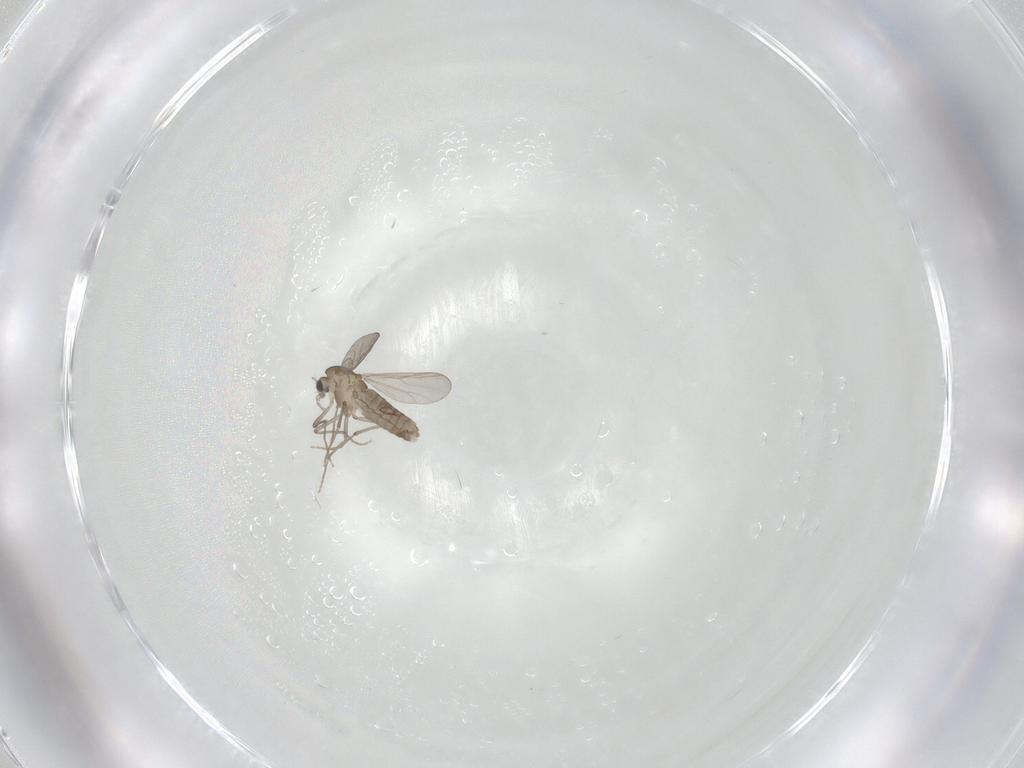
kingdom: Animalia
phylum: Arthropoda
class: Insecta
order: Diptera
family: Chironomidae
